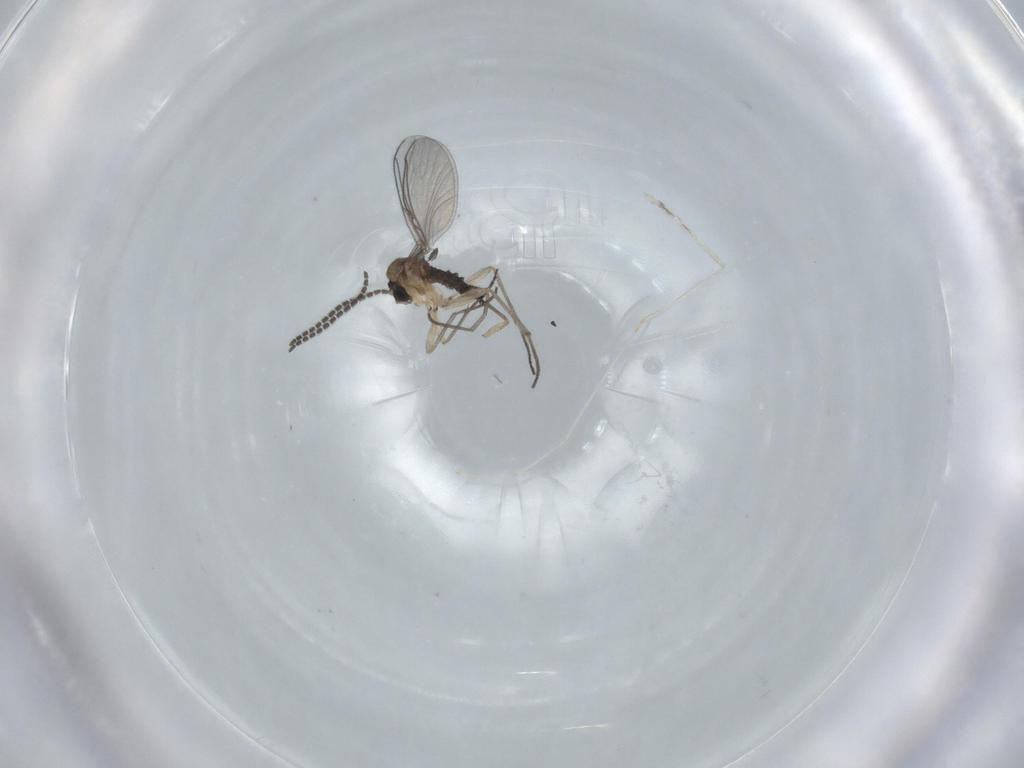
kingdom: Animalia
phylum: Arthropoda
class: Insecta
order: Diptera
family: Sciaridae
